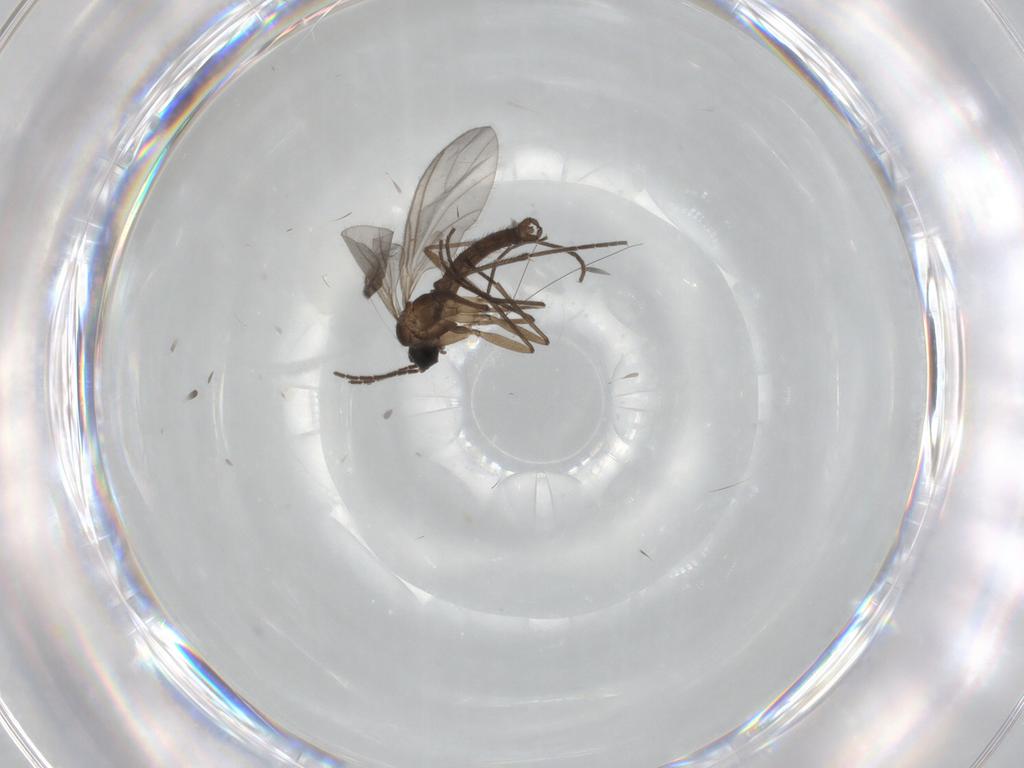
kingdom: Animalia
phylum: Arthropoda
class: Insecta
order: Diptera
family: Sciaridae
